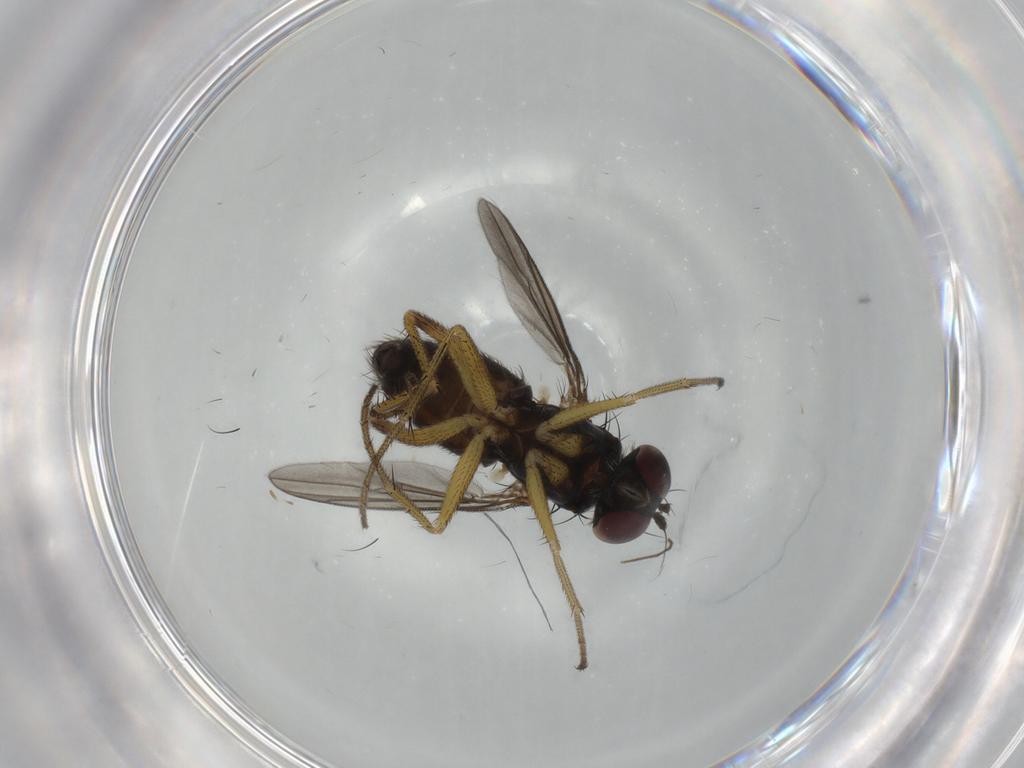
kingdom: Animalia
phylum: Arthropoda
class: Insecta
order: Diptera
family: Dolichopodidae
